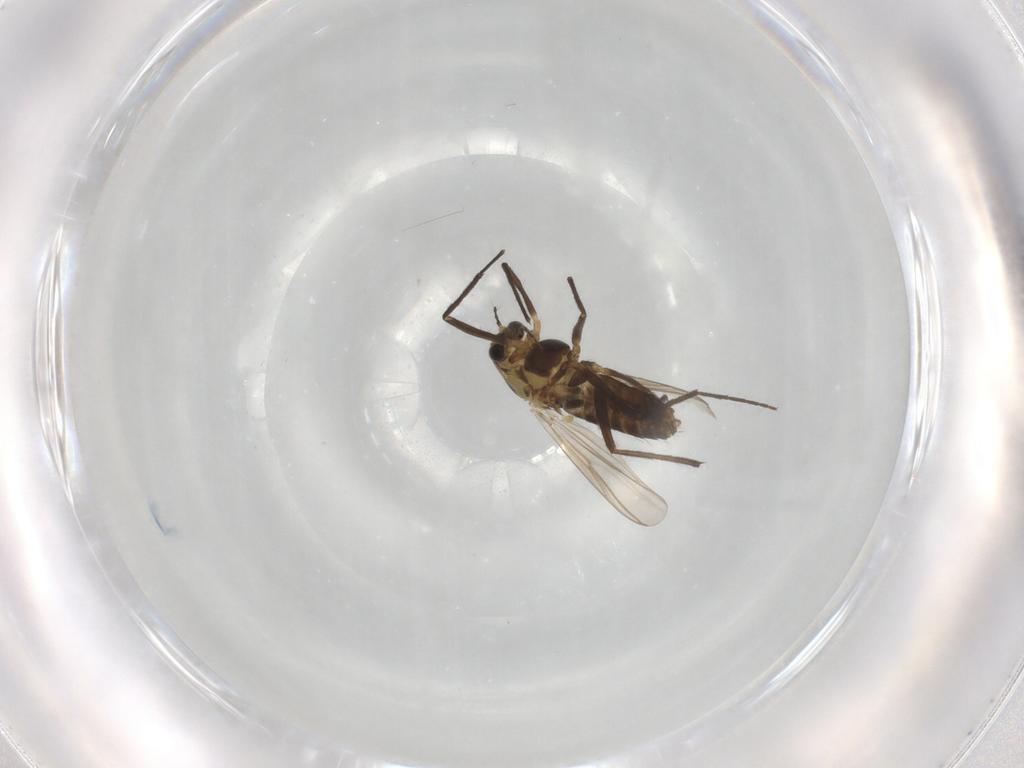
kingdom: Animalia
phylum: Arthropoda
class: Insecta
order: Diptera
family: Chironomidae
